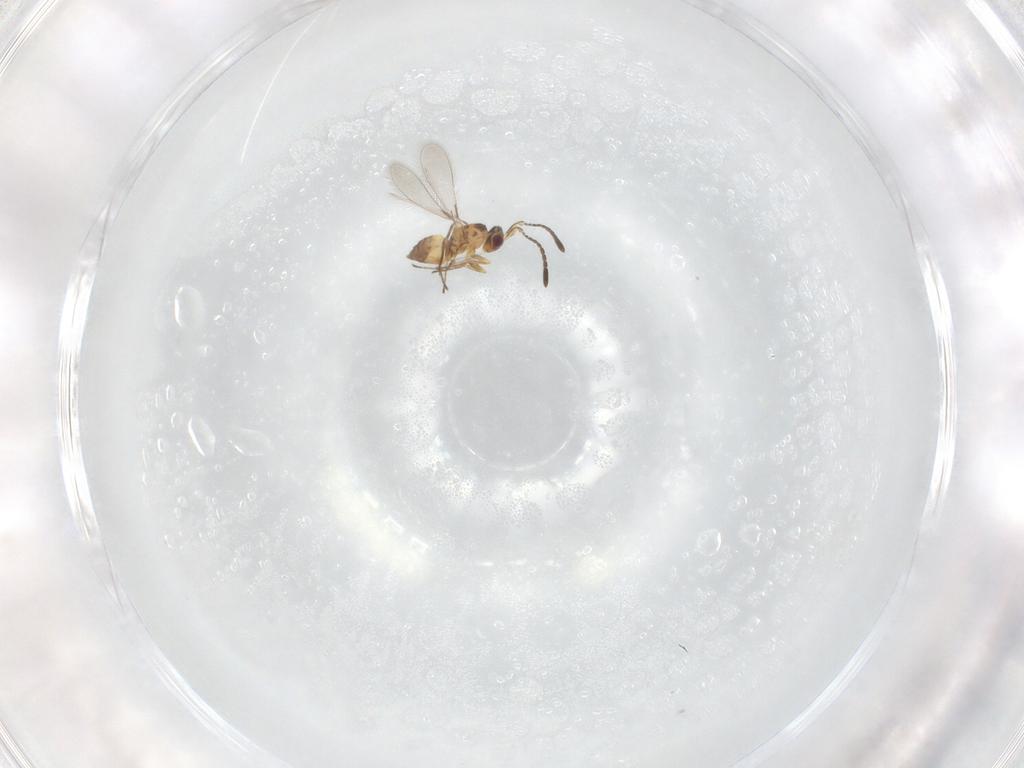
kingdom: Animalia
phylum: Arthropoda
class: Insecta
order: Hymenoptera
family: Mymaridae
